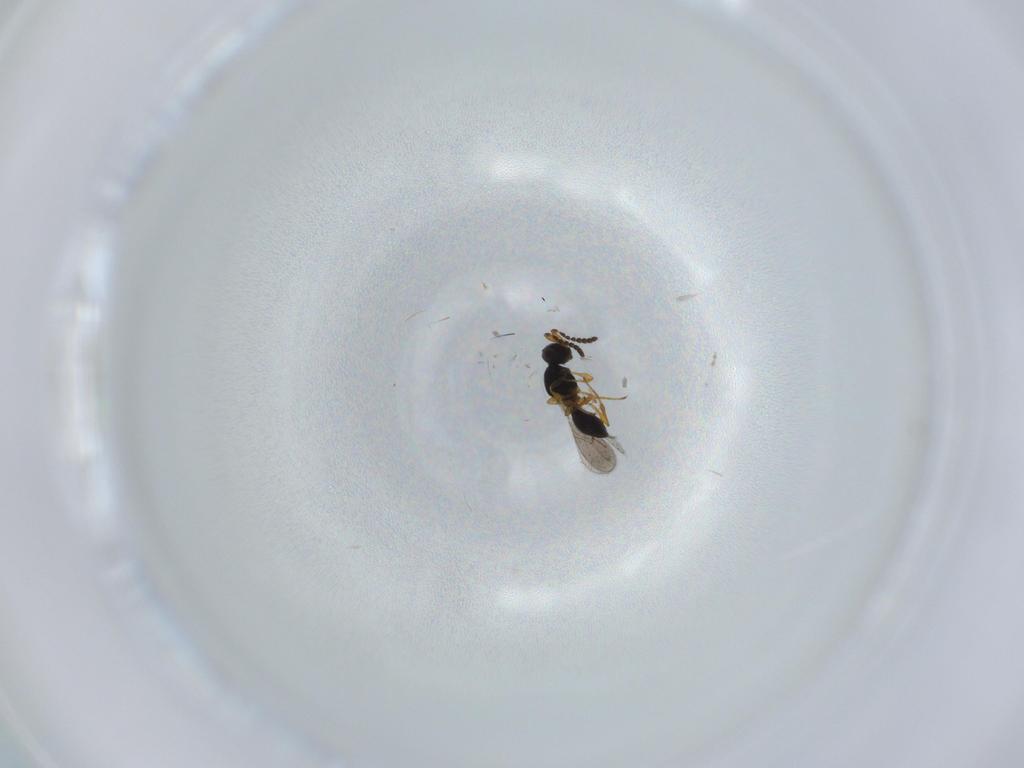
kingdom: Animalia
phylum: Arthropoda
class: Insecta
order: Hymenoptera
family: Platygastridae
